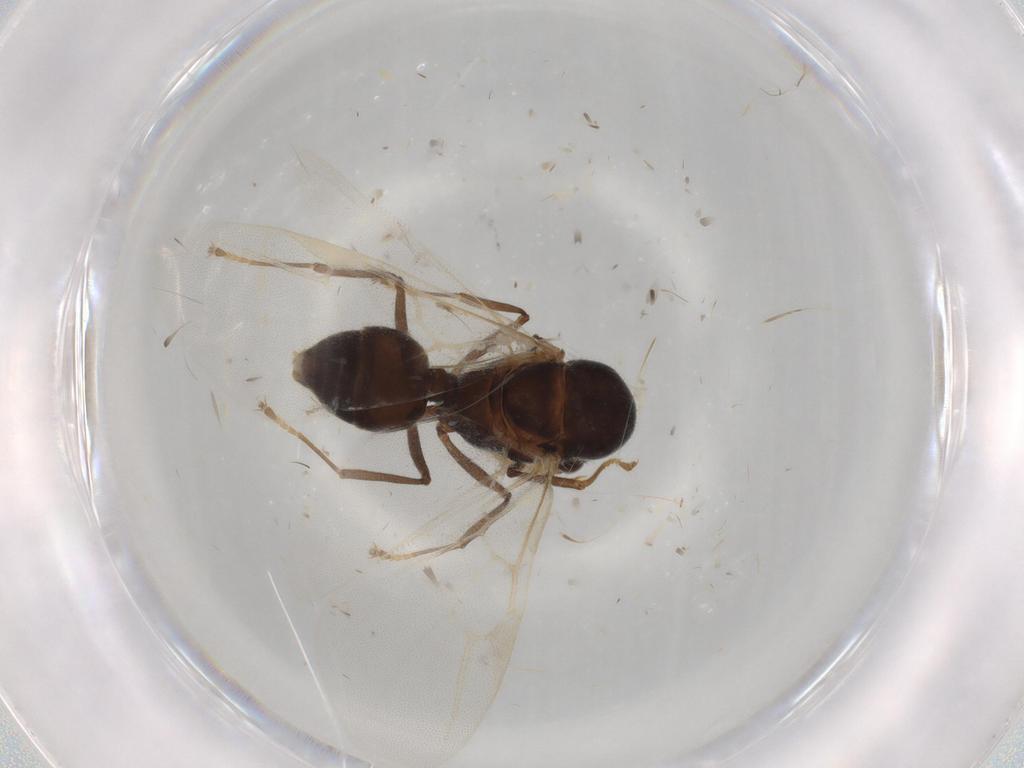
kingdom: Animalia
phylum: Arthropoda
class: Insecta
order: Hymenoptera
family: Formicidae
